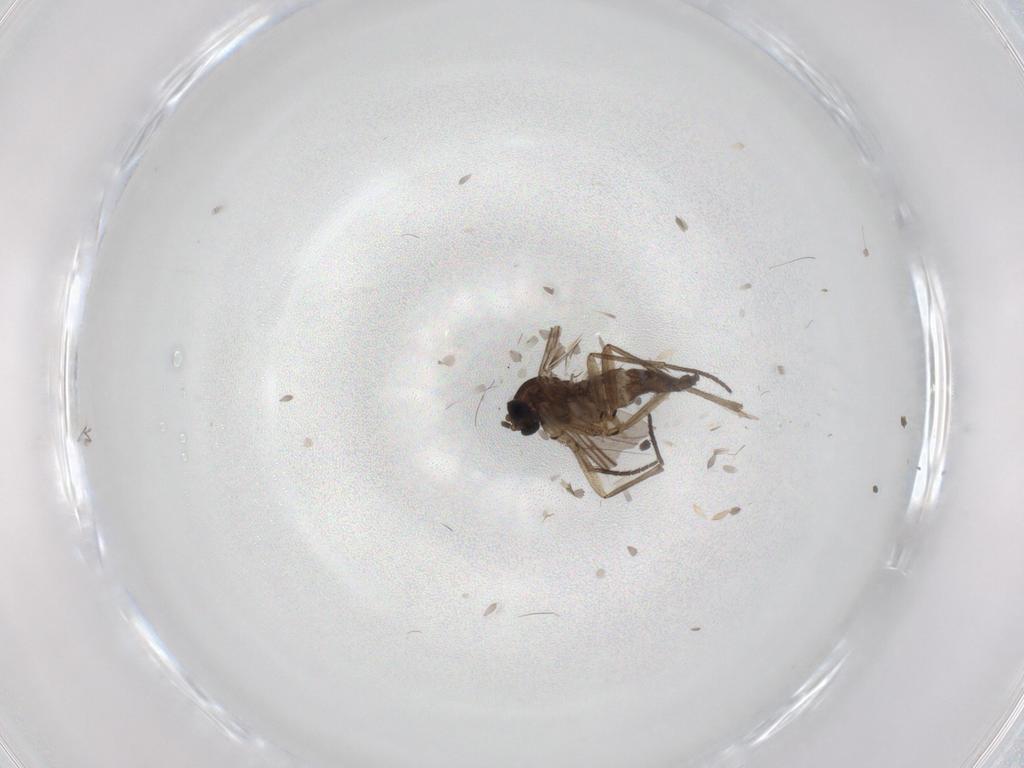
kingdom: Animalia
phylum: Arthropoda
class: Insecta
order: Diptera
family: Sciaridae
